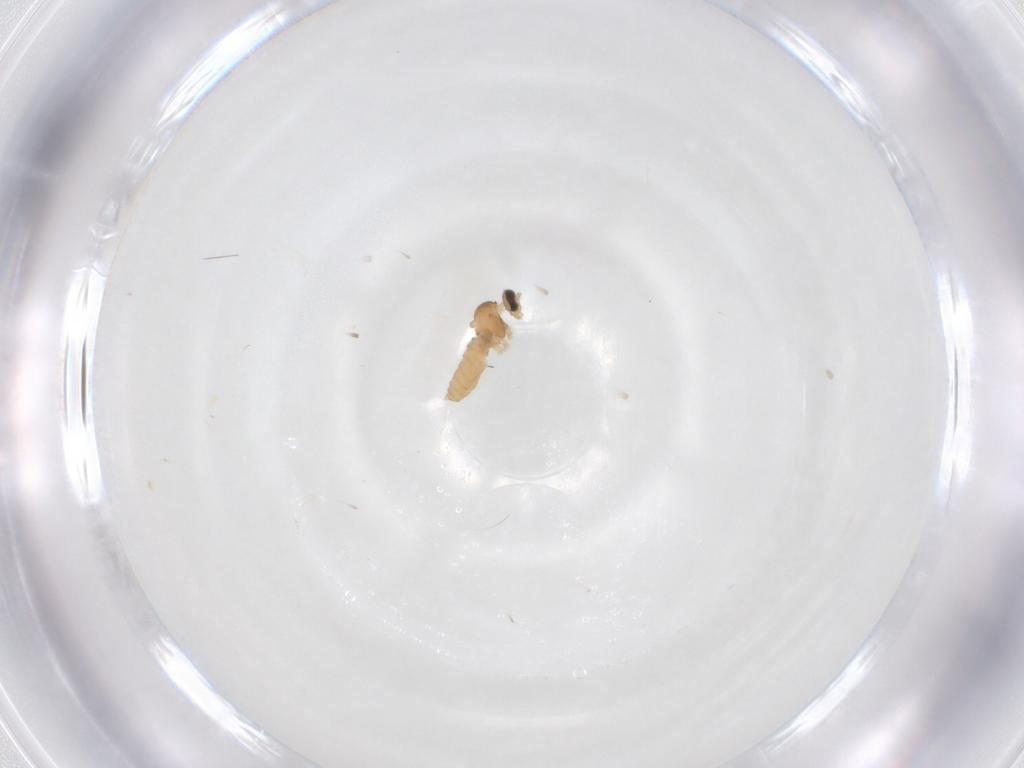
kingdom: Animalia
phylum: Arthropoda
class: Insecta
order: Diptera
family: Cecidomyiidae
